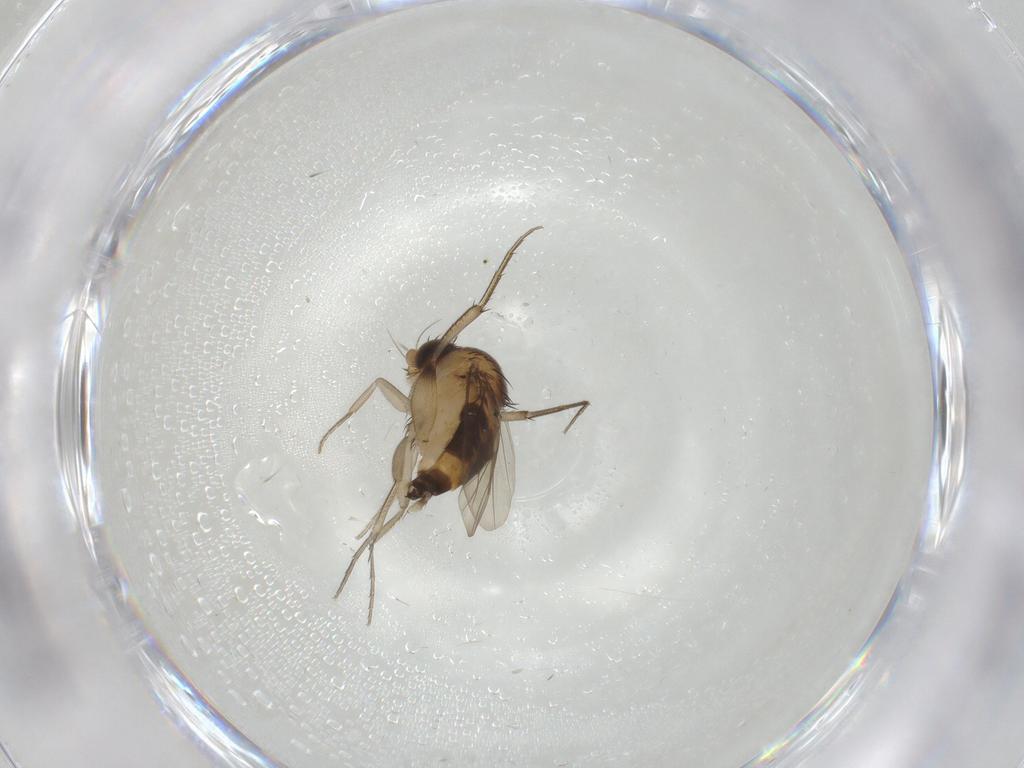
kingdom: Animalia
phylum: Arthropoda
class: Insecta
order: Diptera
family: Phoridae
